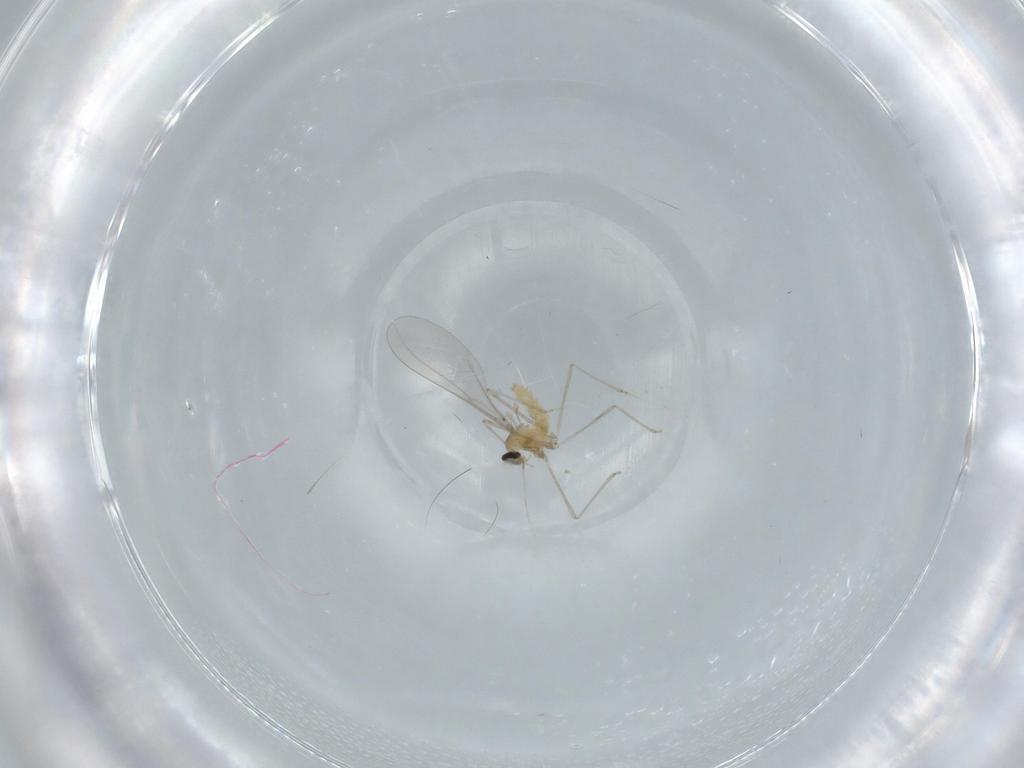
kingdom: Animalia
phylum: Arthropoda
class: Insecta
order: Diptera
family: Cecidomyiidae
